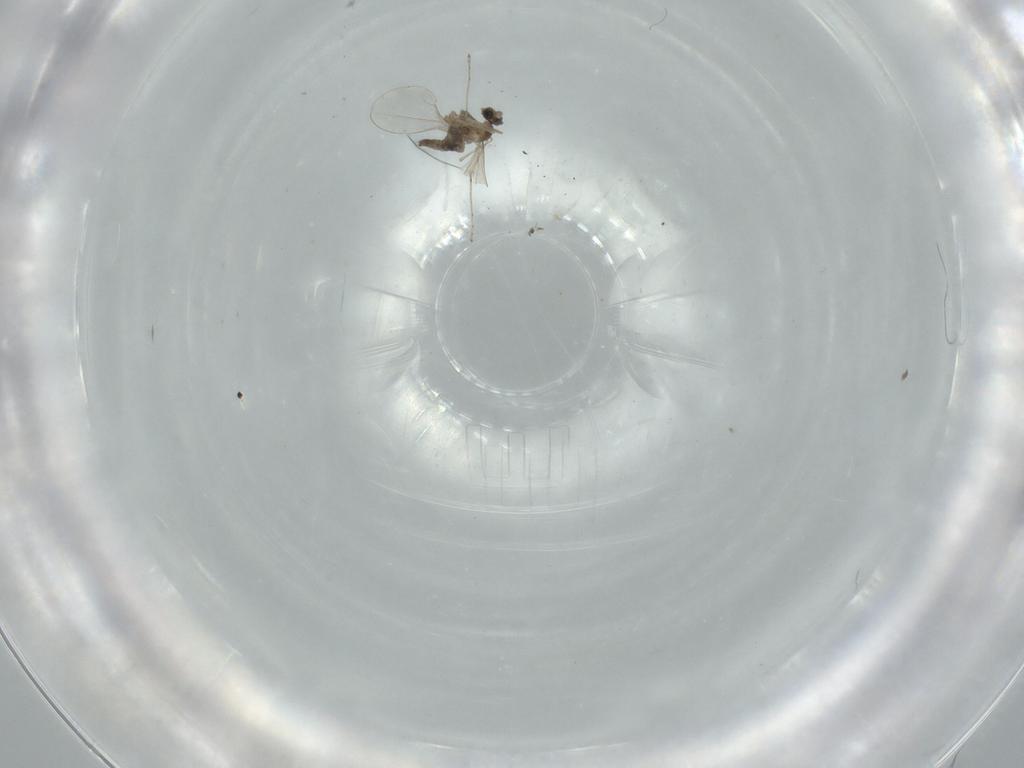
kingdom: Animalia
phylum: Arthropoda
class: Insecta
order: Diptera
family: Cecidomyiidae
